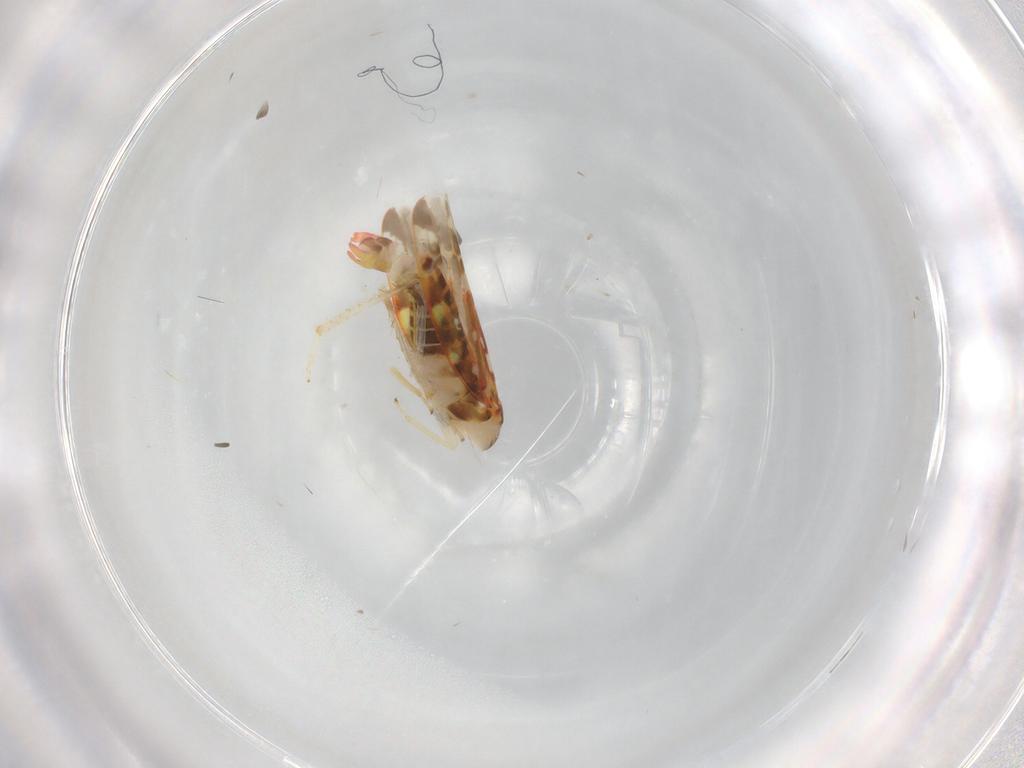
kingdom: Animalia
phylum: Arthropoda
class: Insecta
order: Hemiptera
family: Cicadellidae
